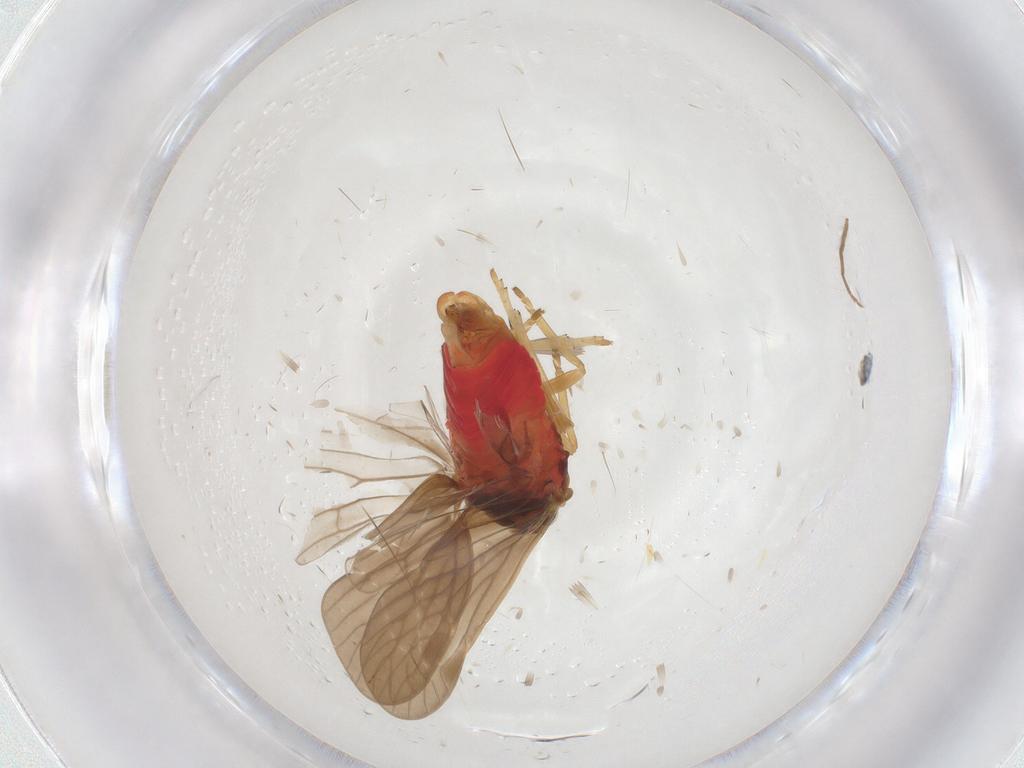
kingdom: Animalia
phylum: Arthropoda
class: Insecta
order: Hemiptera
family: Derbidae
